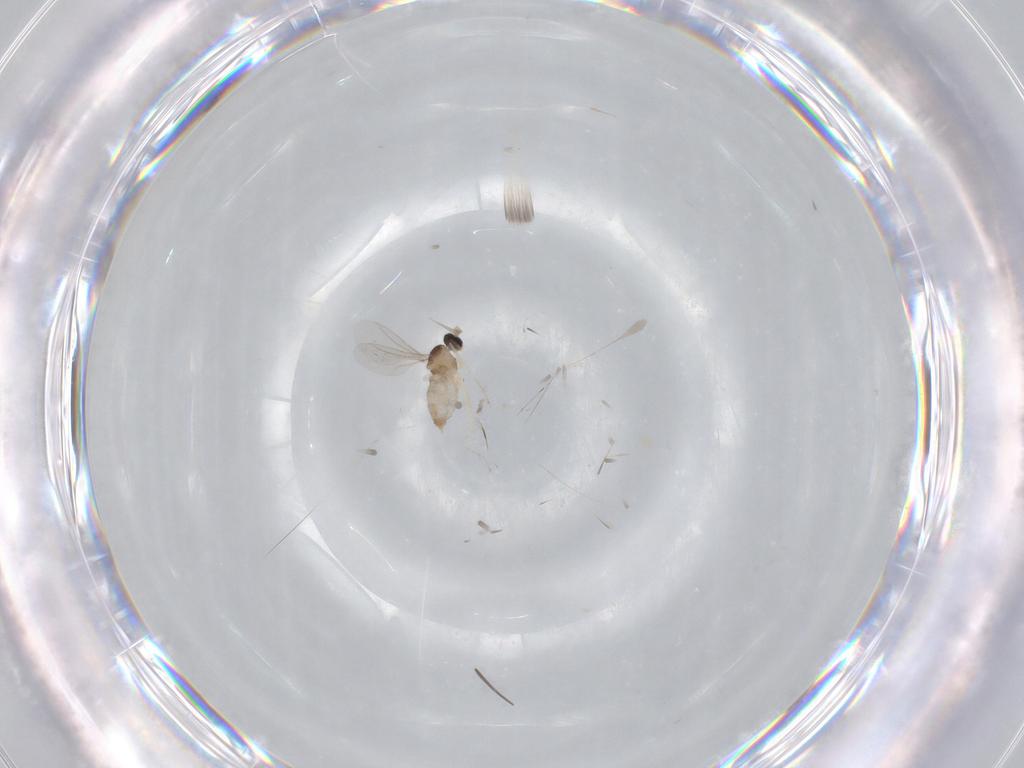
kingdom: Animalia
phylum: Arthropoda
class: Insecta
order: Diptera
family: Cecidomyiidae
